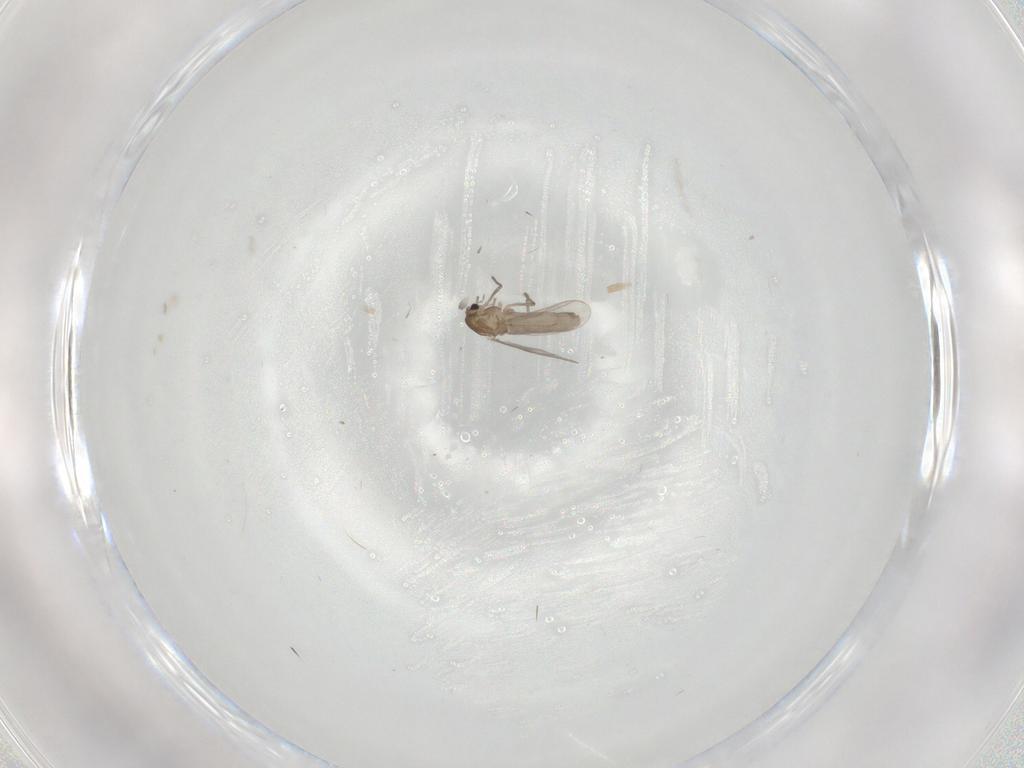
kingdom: Animalia
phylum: Arthropoda
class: Insecta
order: Diptera
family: Chironomidae
